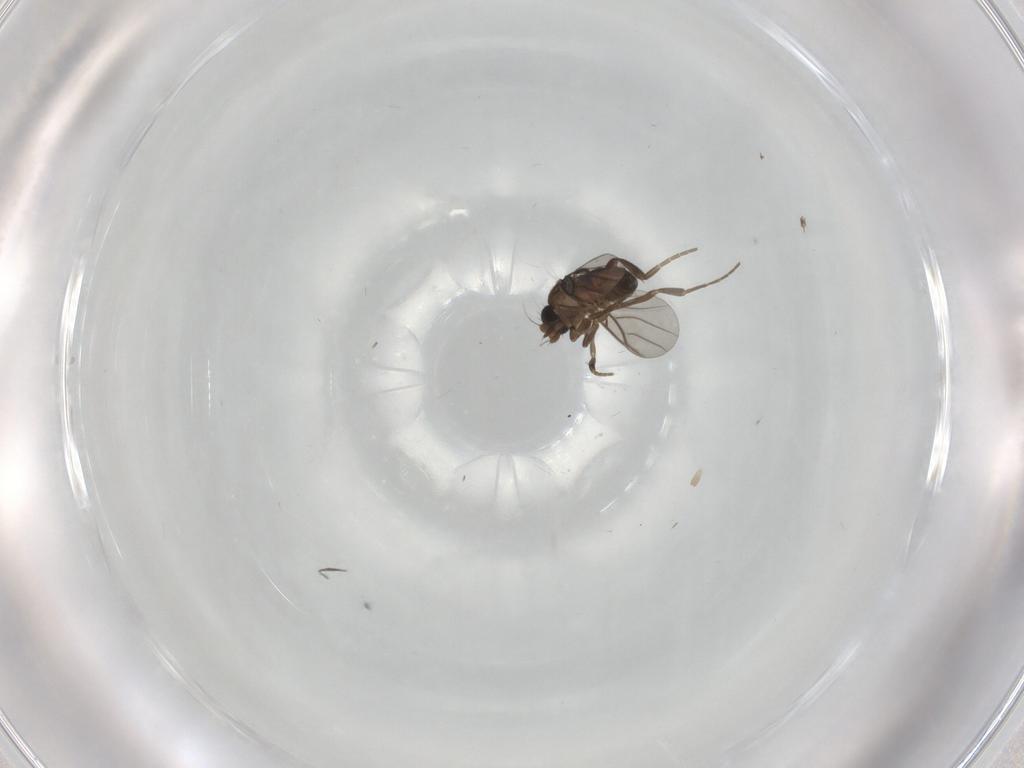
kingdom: Animalia
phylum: Arthropoda
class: Insecta
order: Diptera
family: Phoridae
